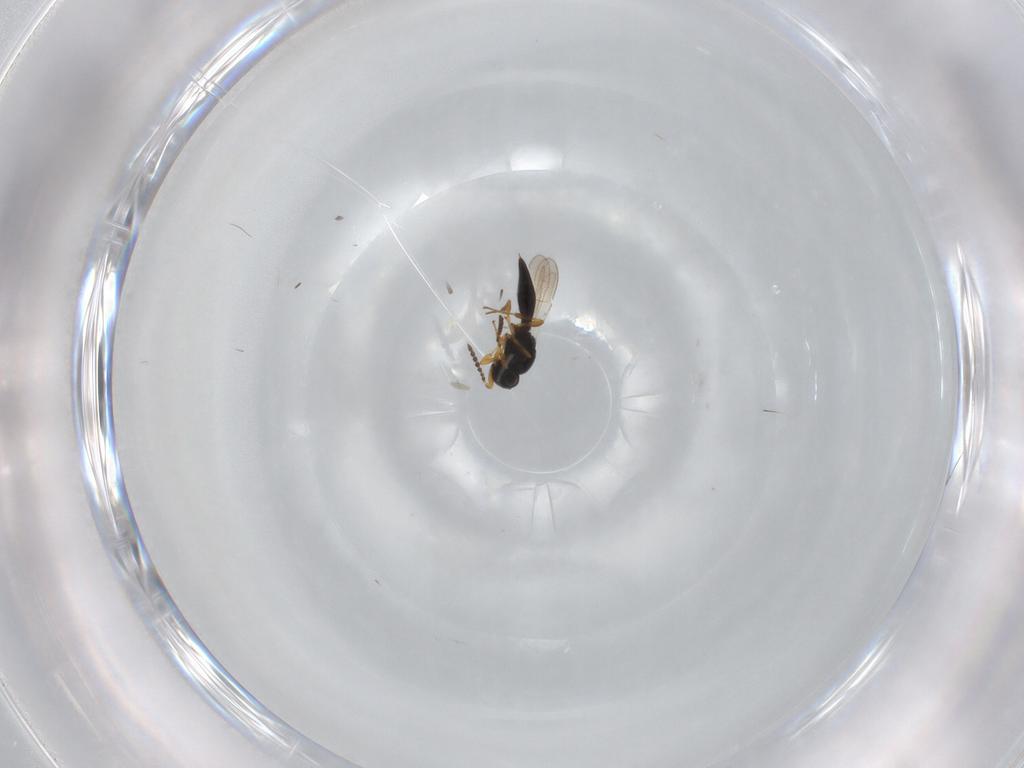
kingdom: Animalia
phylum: Arthropoda
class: Insecta
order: Hymenoptera
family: Platygastridae
